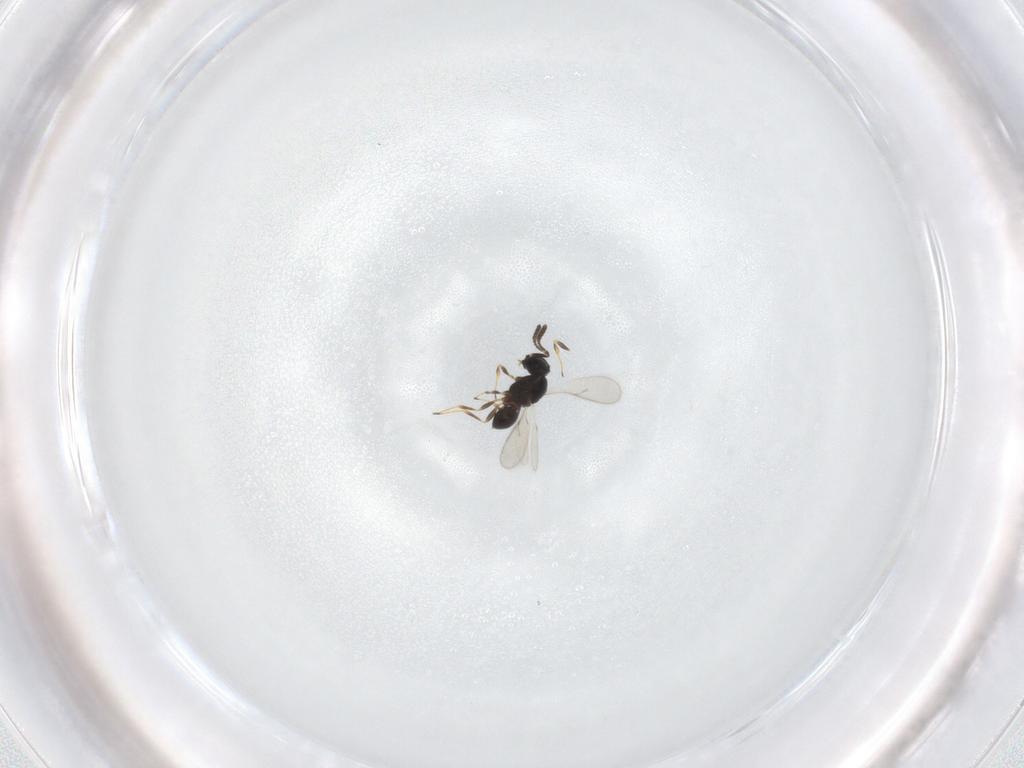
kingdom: Animalia
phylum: Arthropoda
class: Insecta
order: Hymenoptera
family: Scelionidae
